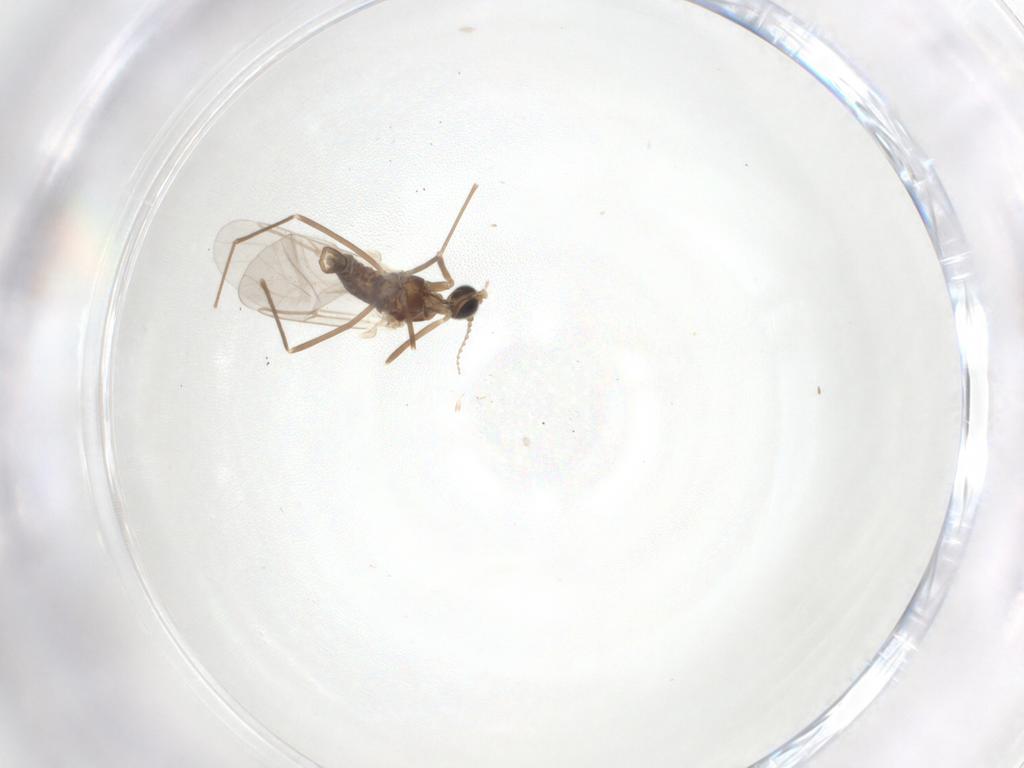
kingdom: Animalia
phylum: Arthropoda
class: Insecta
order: Diptera
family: Cecidomyiidae
